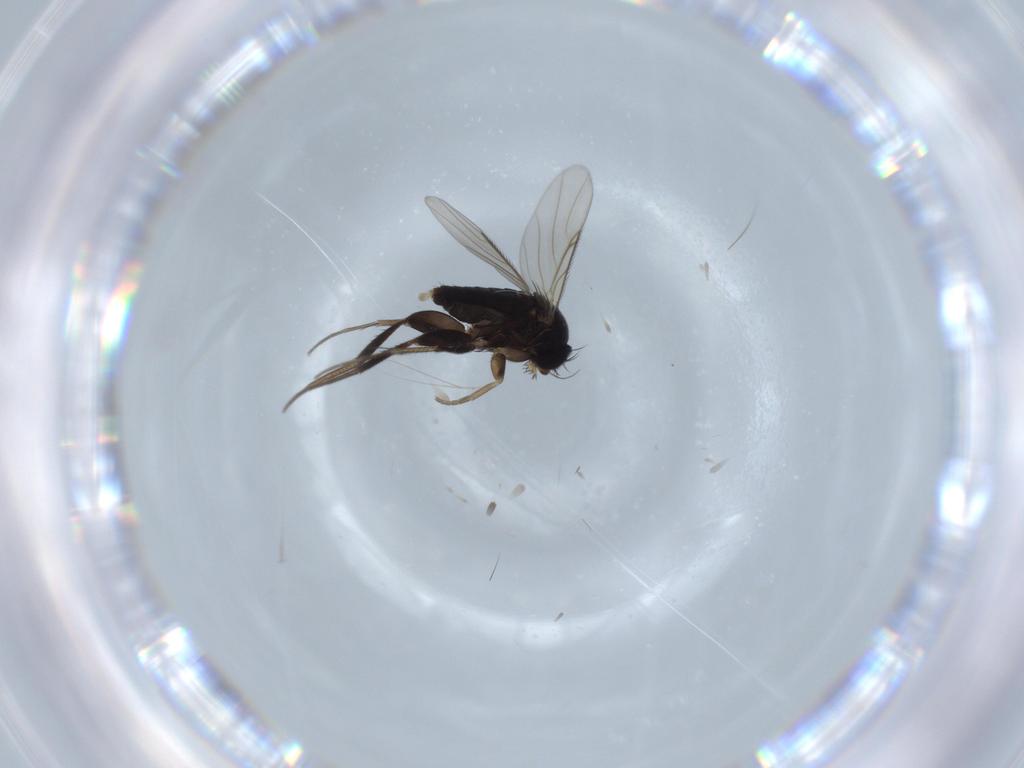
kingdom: Animalia
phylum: Arthropoda
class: Insecta
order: Diptera
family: Phoridae
